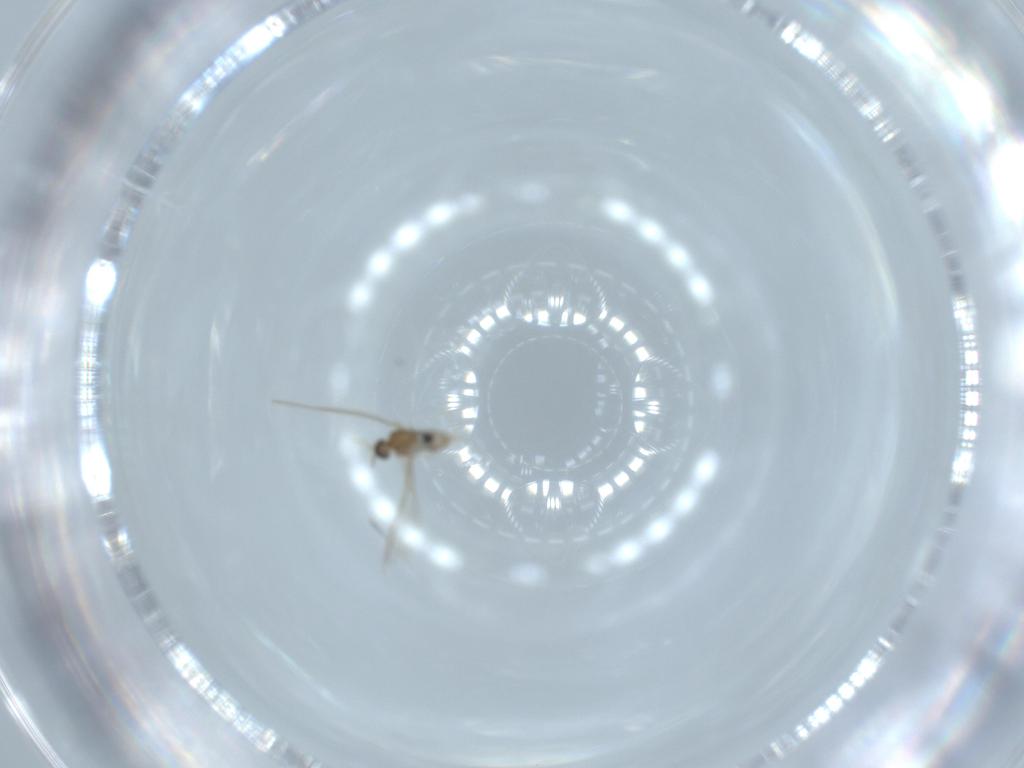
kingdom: Animalia
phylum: Arthropoda
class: Insecta
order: Diptera
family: Cecidomyiidae
